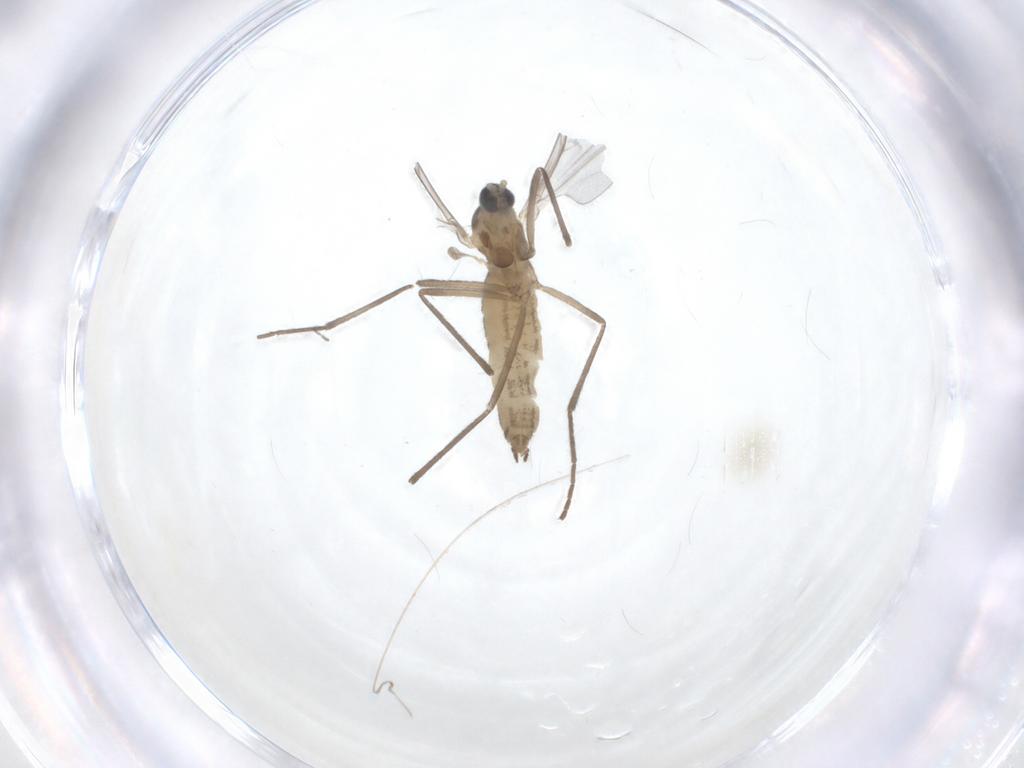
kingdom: Animalia
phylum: Arthropoda
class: Insecta
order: Diptera
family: Cecidomyiidae
